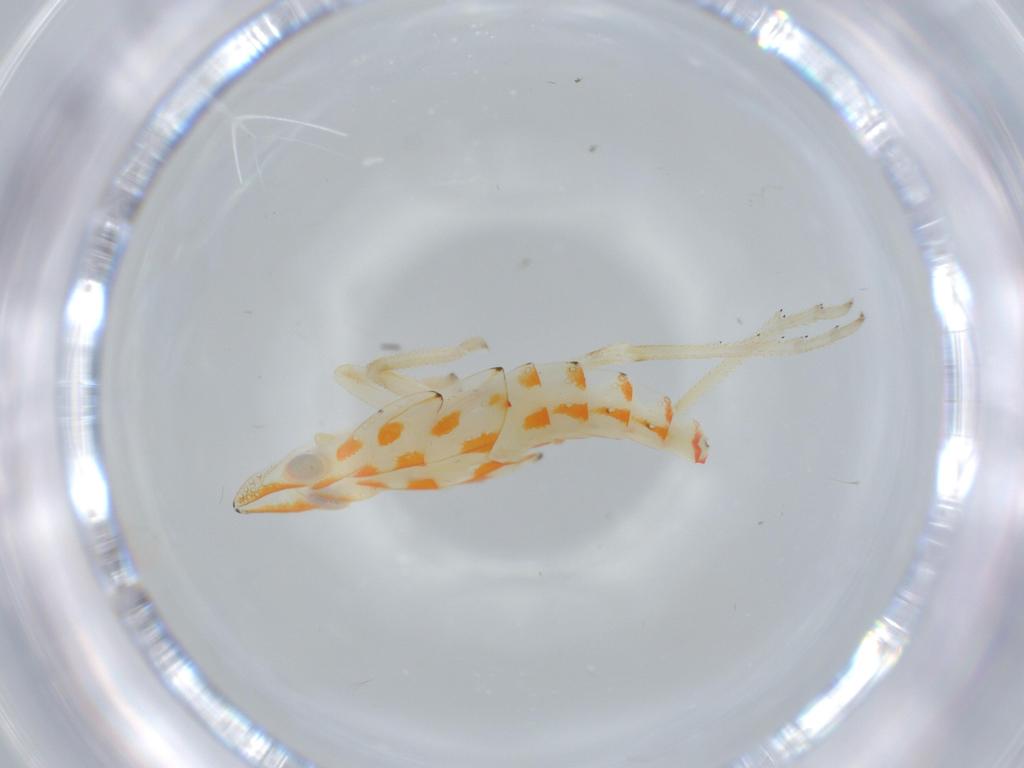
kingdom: Animalia
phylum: Arthropoda
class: Insecta
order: Hemiptera
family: Tropiduchidae
